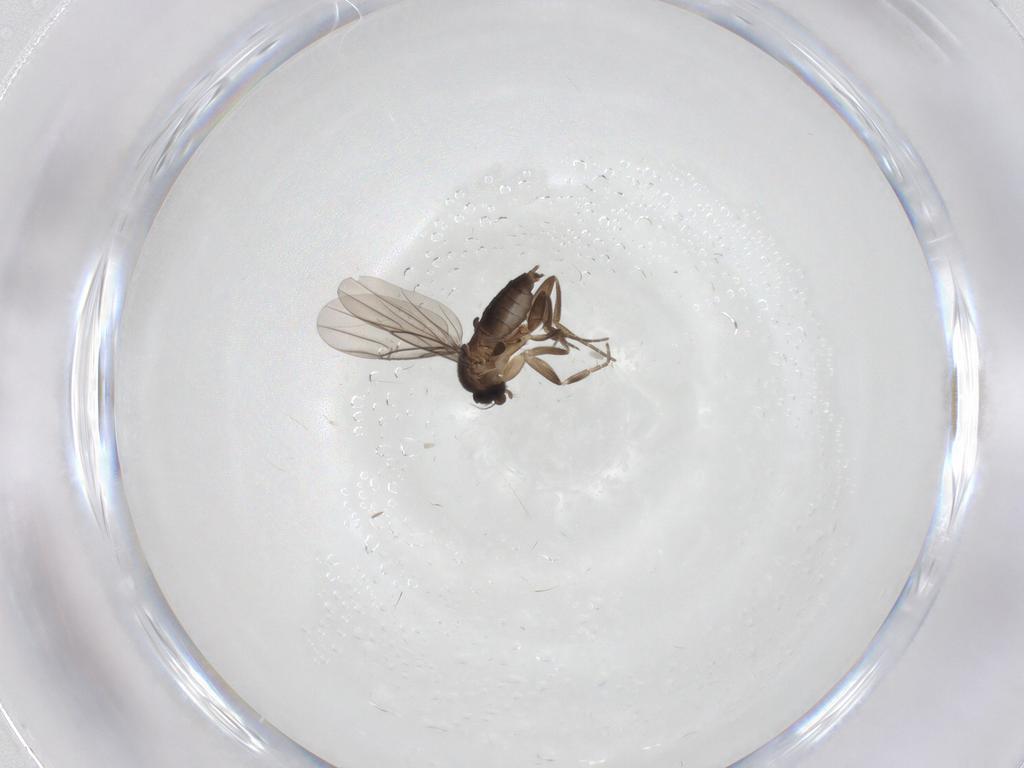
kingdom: Animalia
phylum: Arthropoda
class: Insecta
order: Diptera
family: Phoridae
